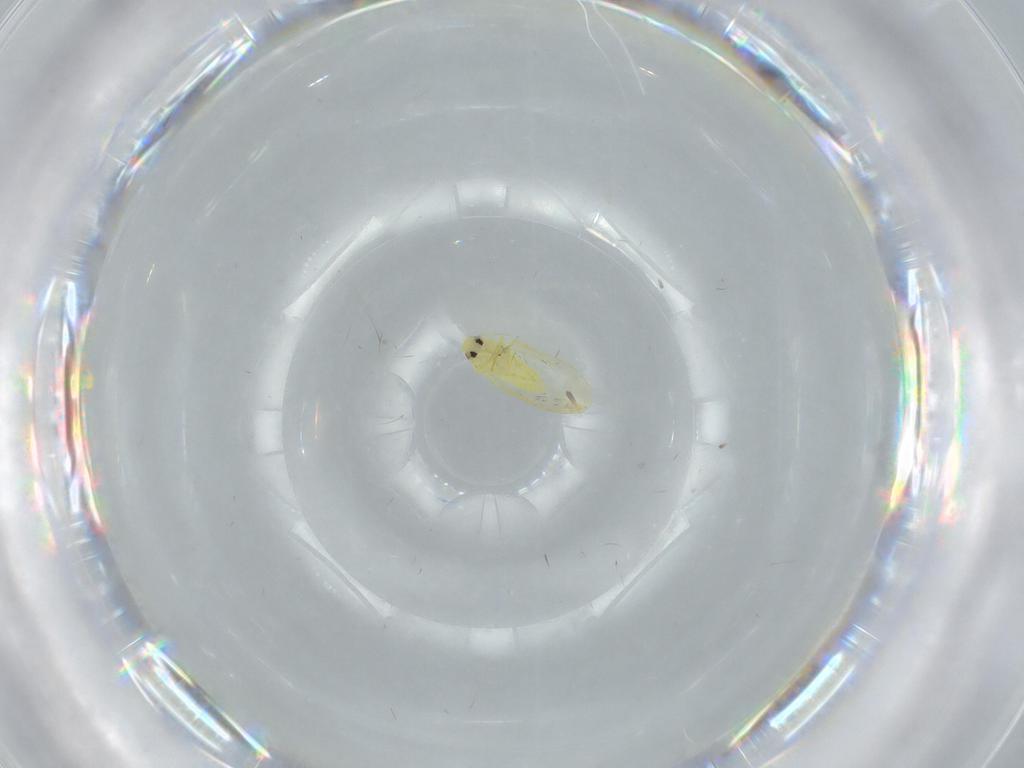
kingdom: Animalia
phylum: Arthropoda
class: Insecta
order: Hemiptera
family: Aleyrodidae
